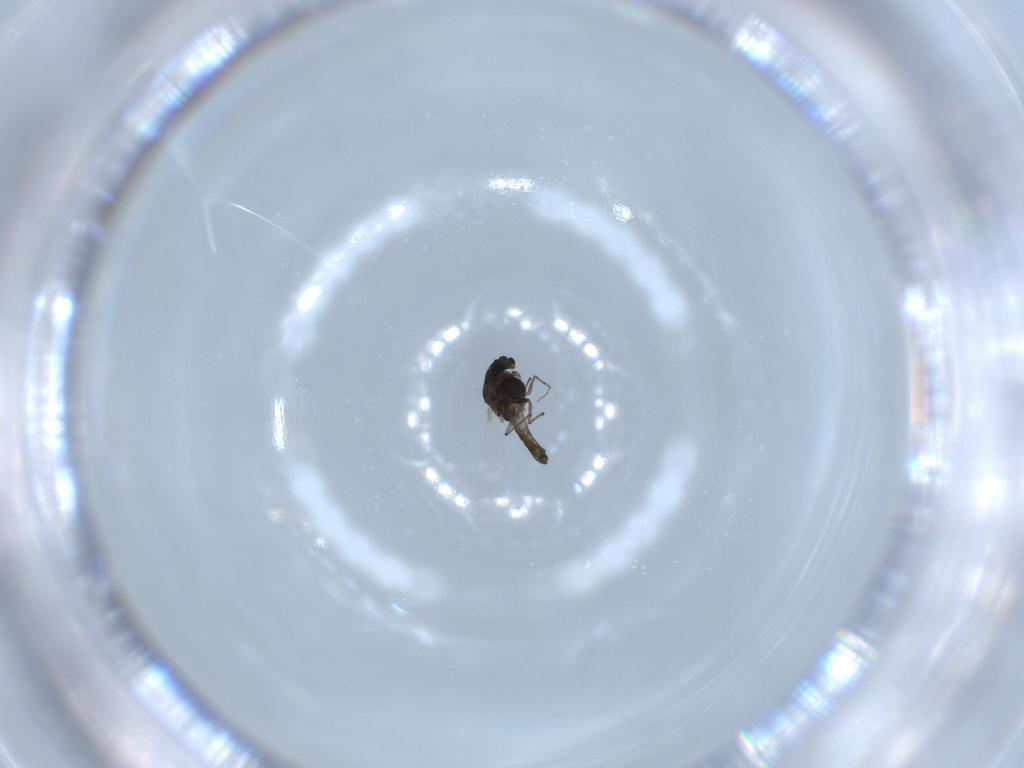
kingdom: Animalia
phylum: Arthropoda
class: Insecta
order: Diptera
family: Chironomidae
